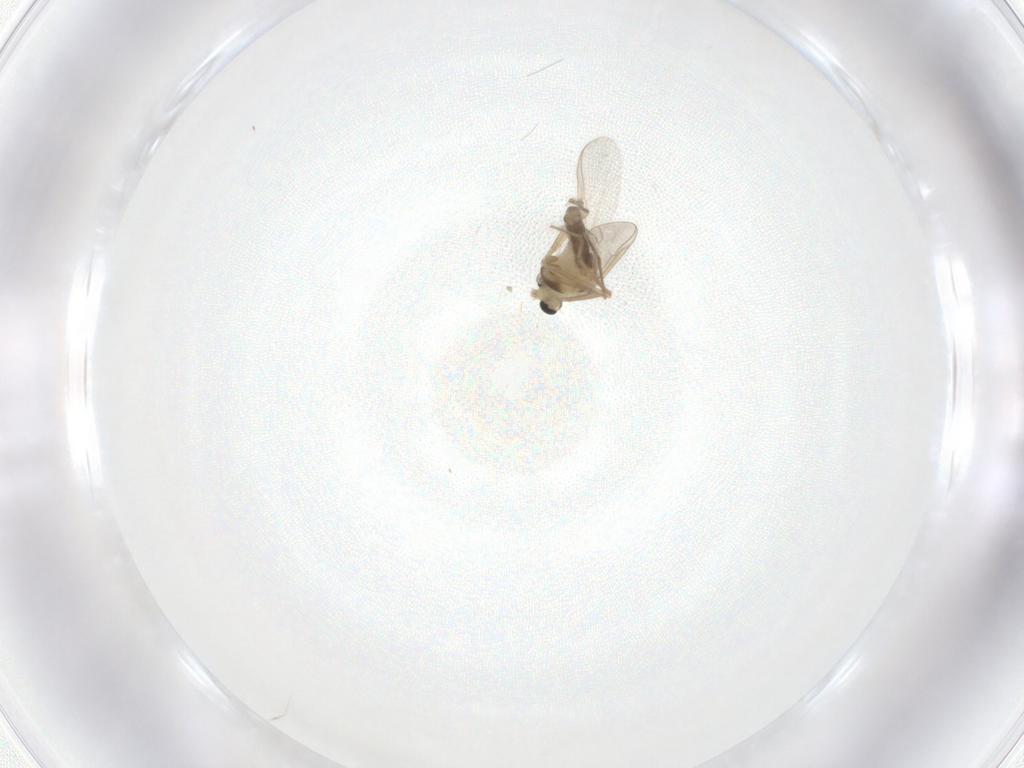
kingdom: Animalia
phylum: Arthropoda
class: Insecta
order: Diptera
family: Chironomidae
